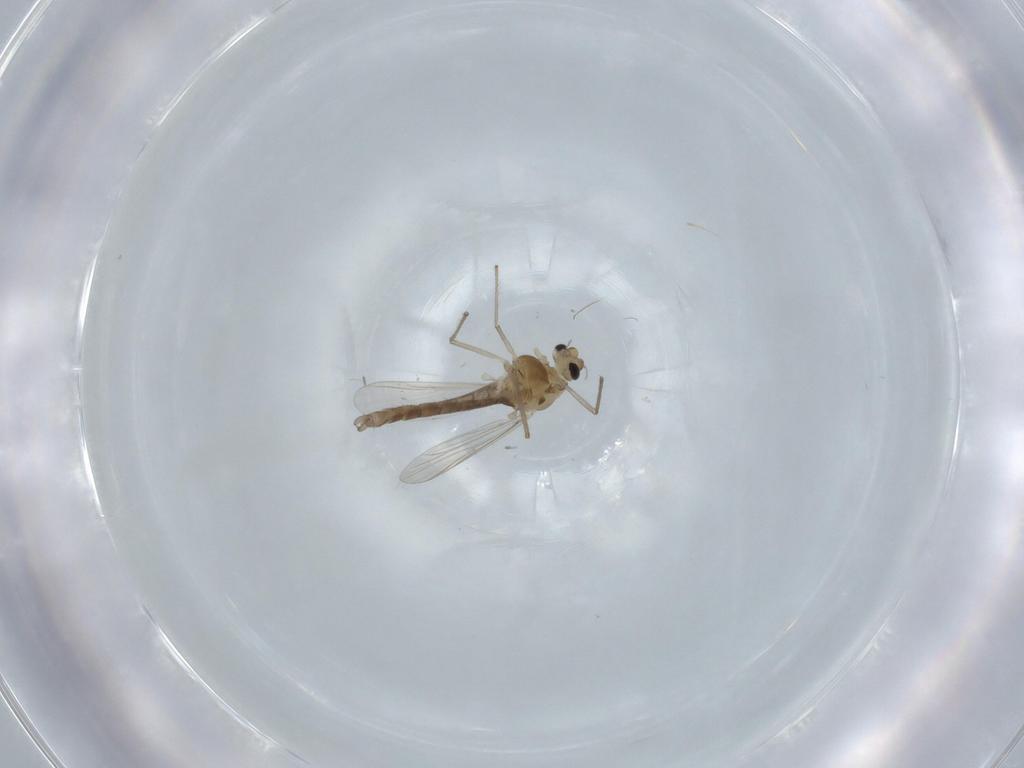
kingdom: Animalia
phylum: Arthropoda
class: Insecta
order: Diptera
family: Chironomidae
